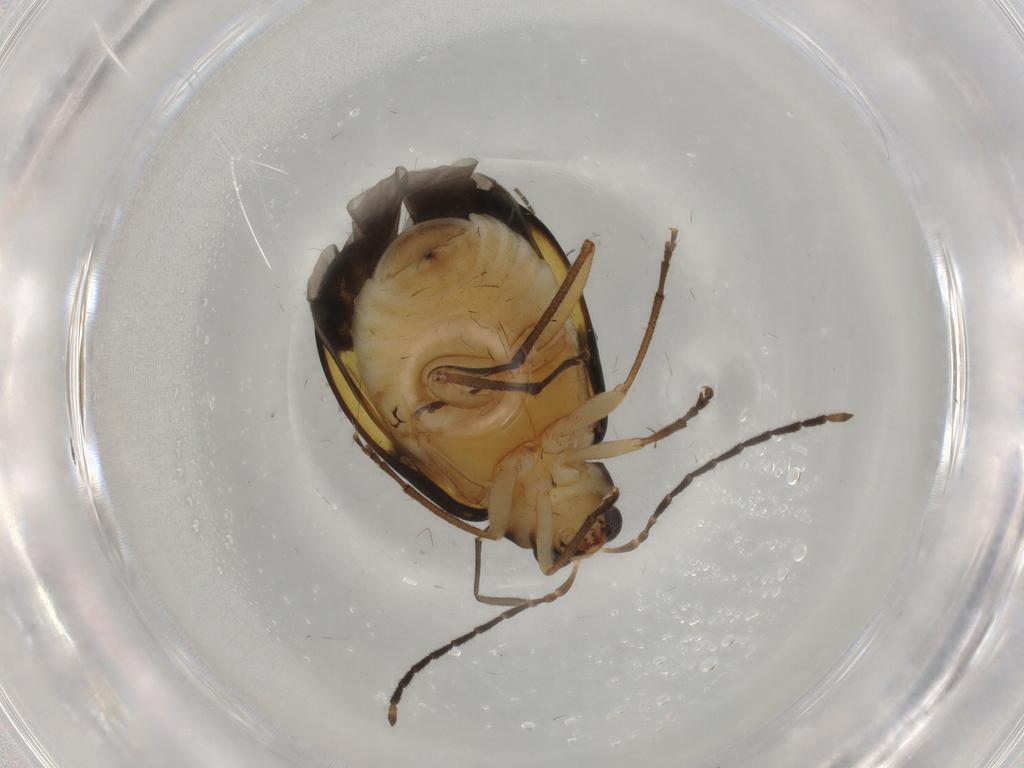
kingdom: Animalia
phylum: Arthropoda
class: Insecta
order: Coleoptera
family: Chrysomelidae
